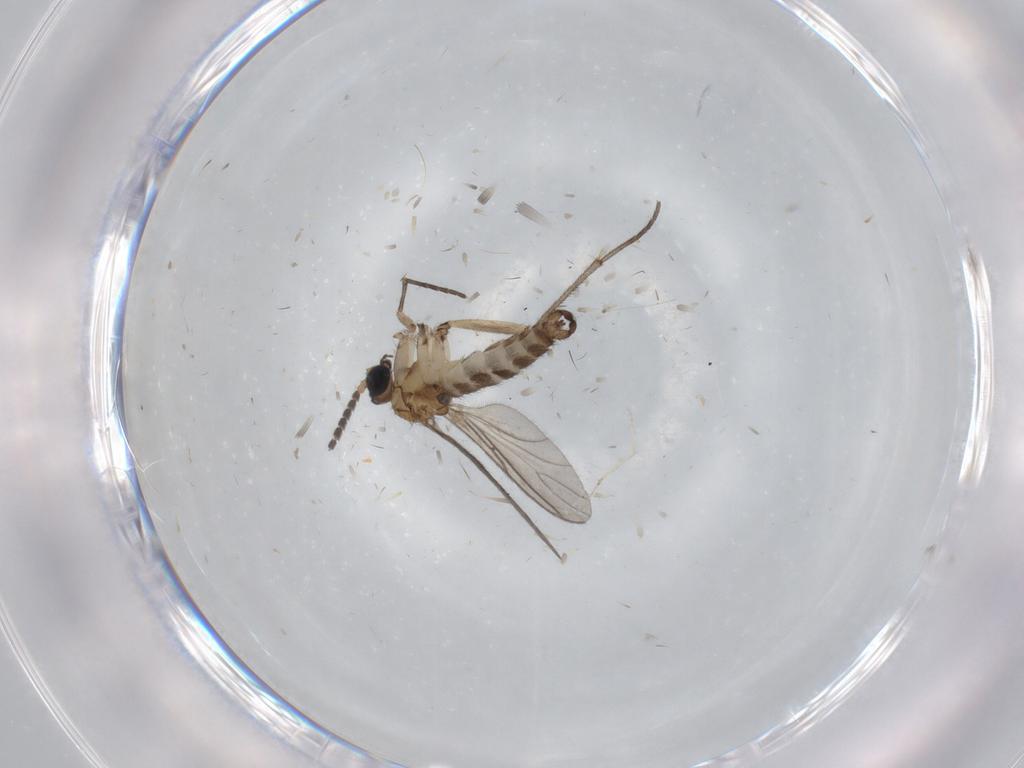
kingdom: Animalia
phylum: Arthropoda
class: Insecta
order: Diptera
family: Sciaridae
